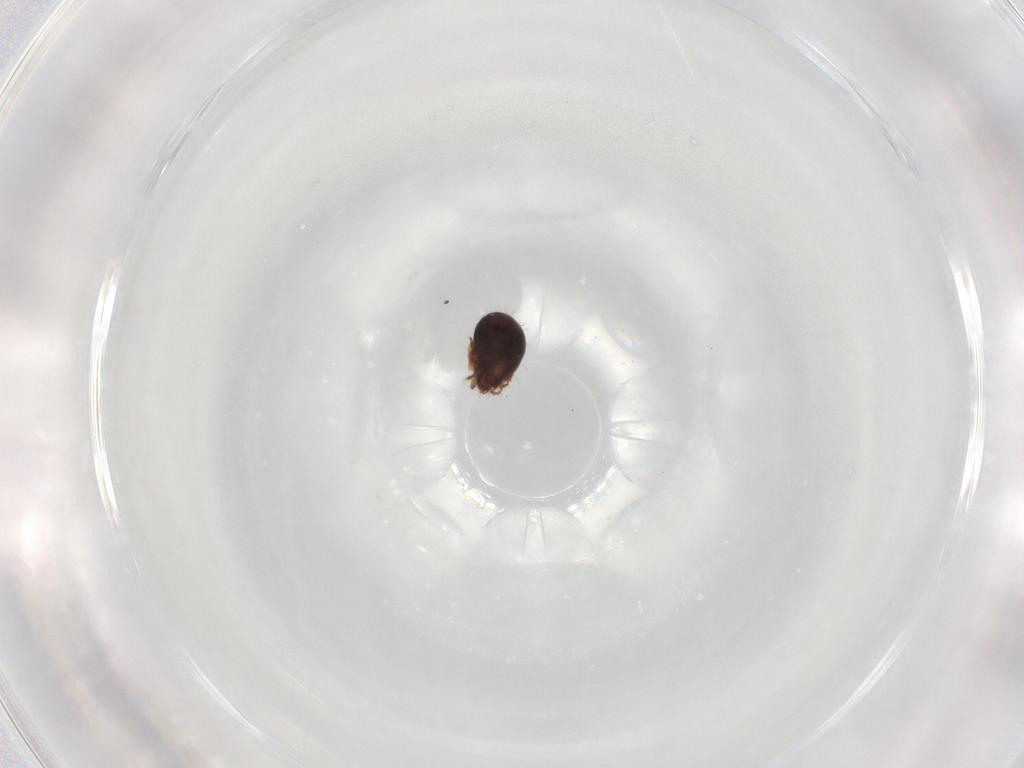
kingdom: Animalia
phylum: Arthropoda
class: Arachnida
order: Sarcoptiformes
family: Humerobatidae
